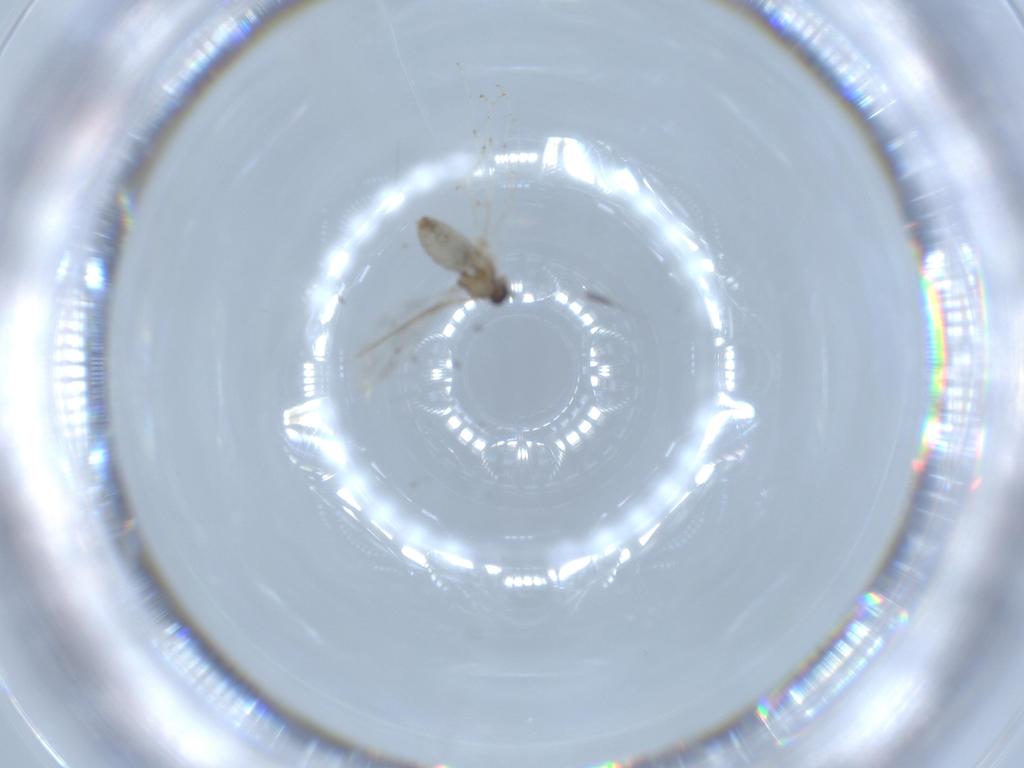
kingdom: Animalia
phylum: Arthropoda
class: Insecta
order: Diptera
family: Cecidomyiidae
